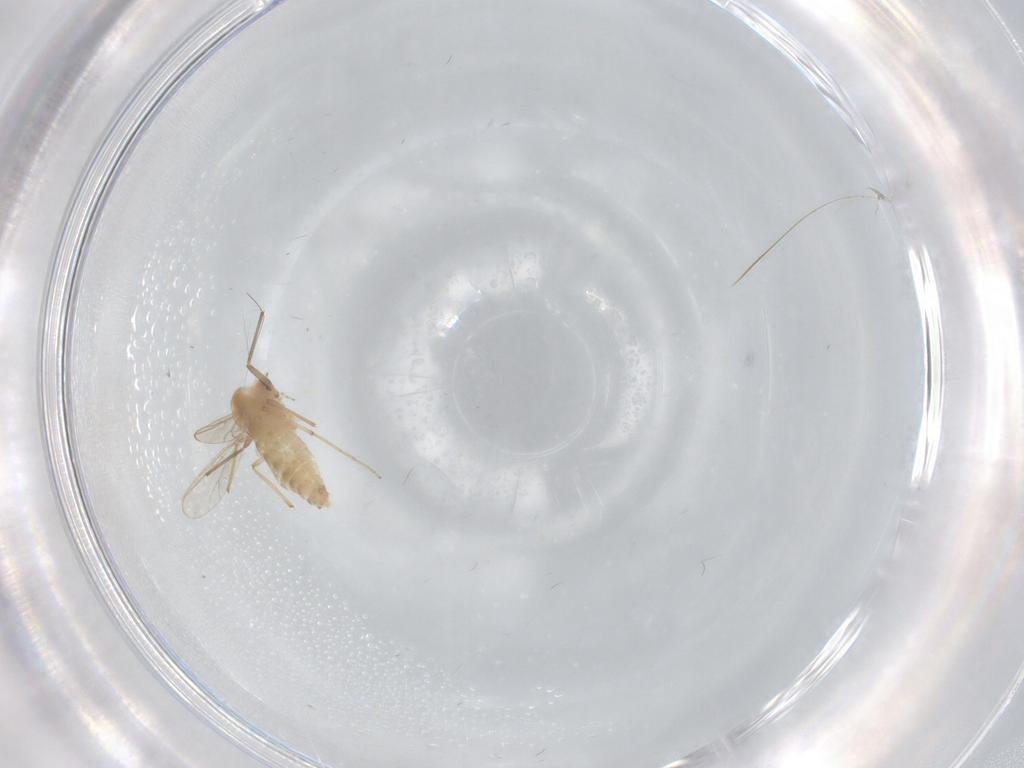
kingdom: Animalia
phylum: Arthropoda
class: Insecta
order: Diptera
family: Chironomidae
